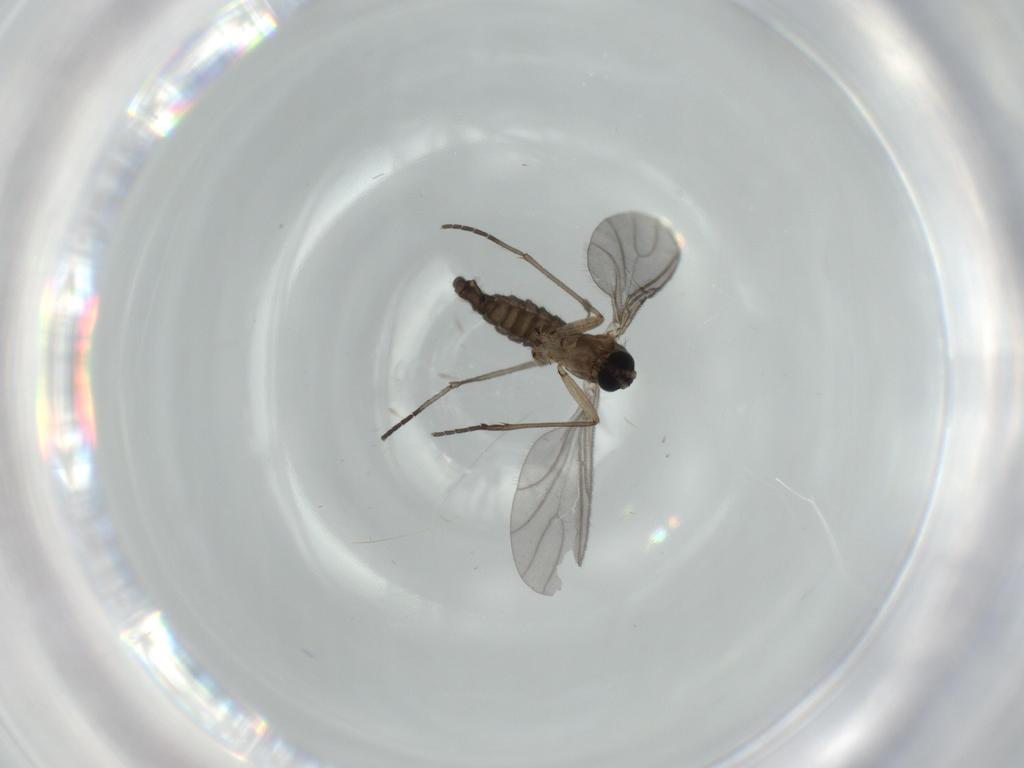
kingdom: Animalia
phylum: Arthropoda
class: Insecta
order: Diptera
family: Sciaridae
